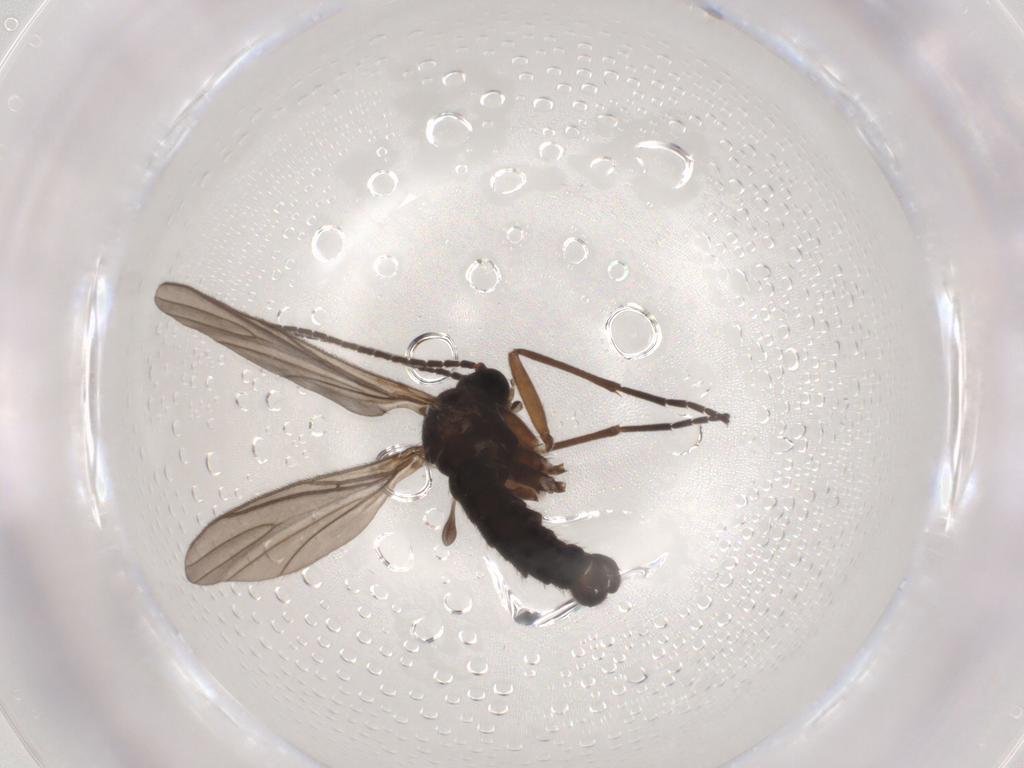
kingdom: Animalia
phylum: Arthropoda
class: Insecta
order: Diptera
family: Sciaridae
